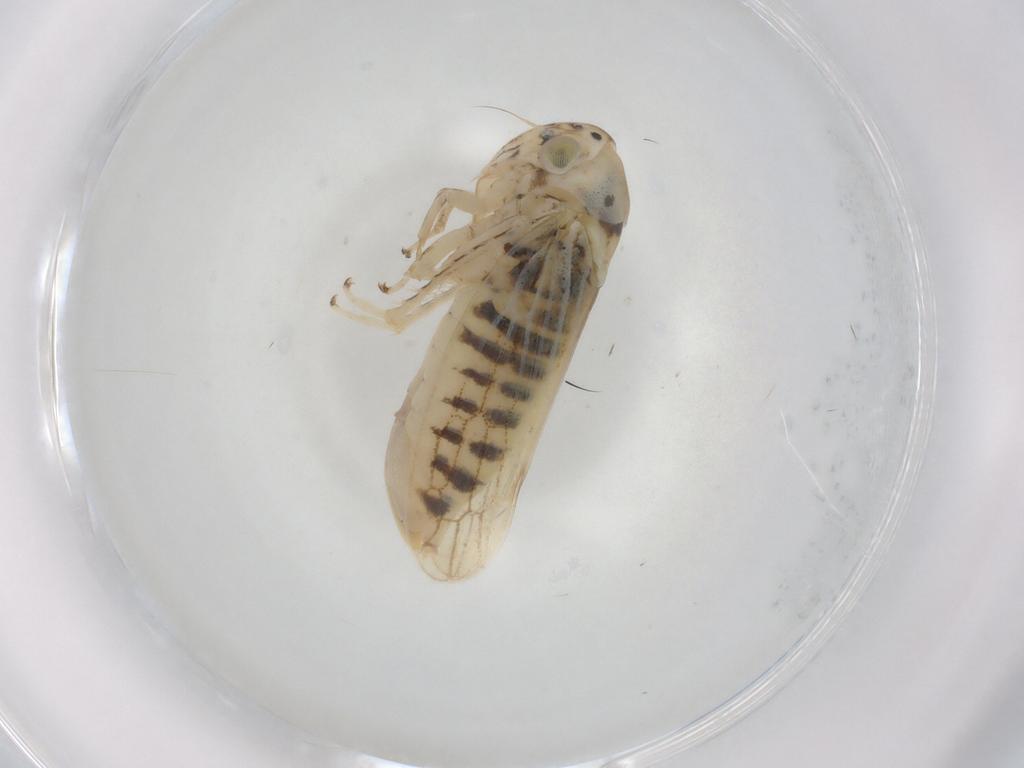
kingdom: Animalia
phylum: Arthropoda
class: Insecta
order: Hemiptera
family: Cicadellidae
